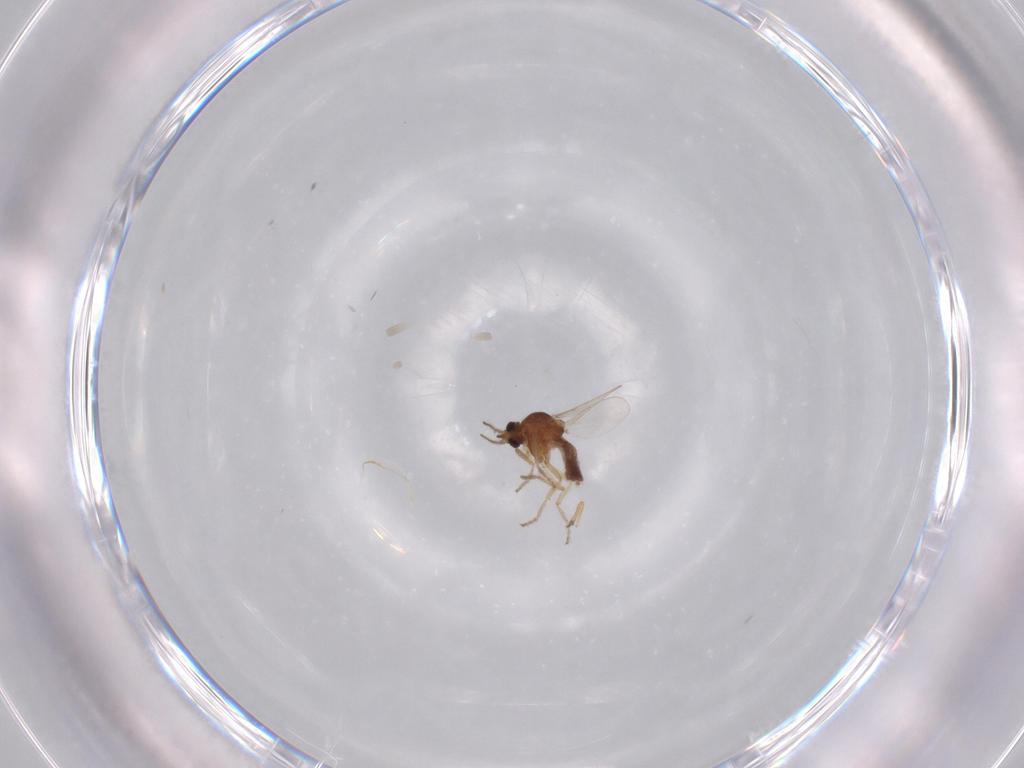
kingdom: Animalia
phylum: Arthropoda
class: Insecta
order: Diptera
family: Ceratopogonidae
